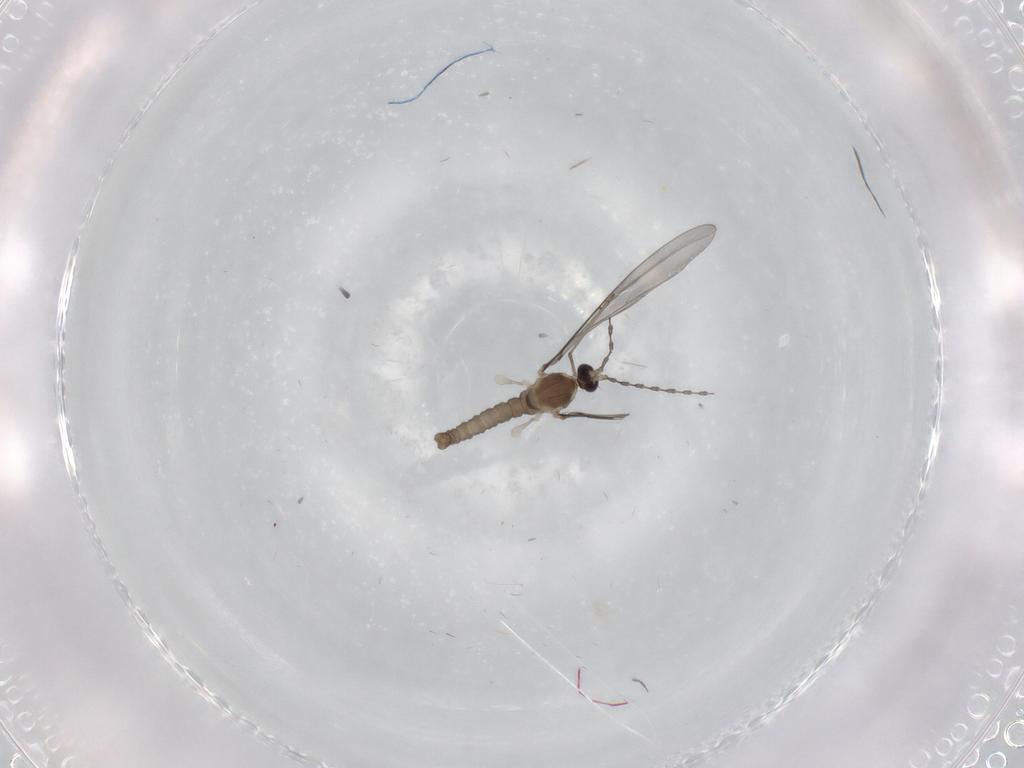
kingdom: Animalia
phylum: Arthropoda
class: Insecta
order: Diptera
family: Cecidomyiidae
